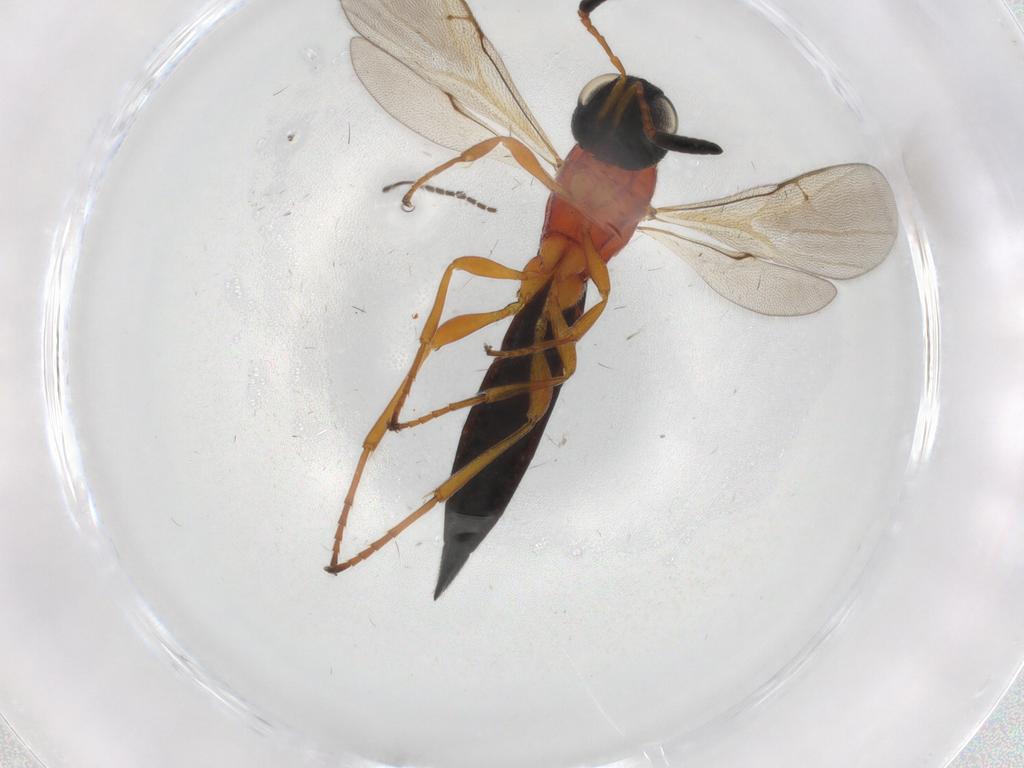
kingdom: Animalia
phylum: Arthropoda
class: Insecta
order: Hymenoptera
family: Scelionidae
